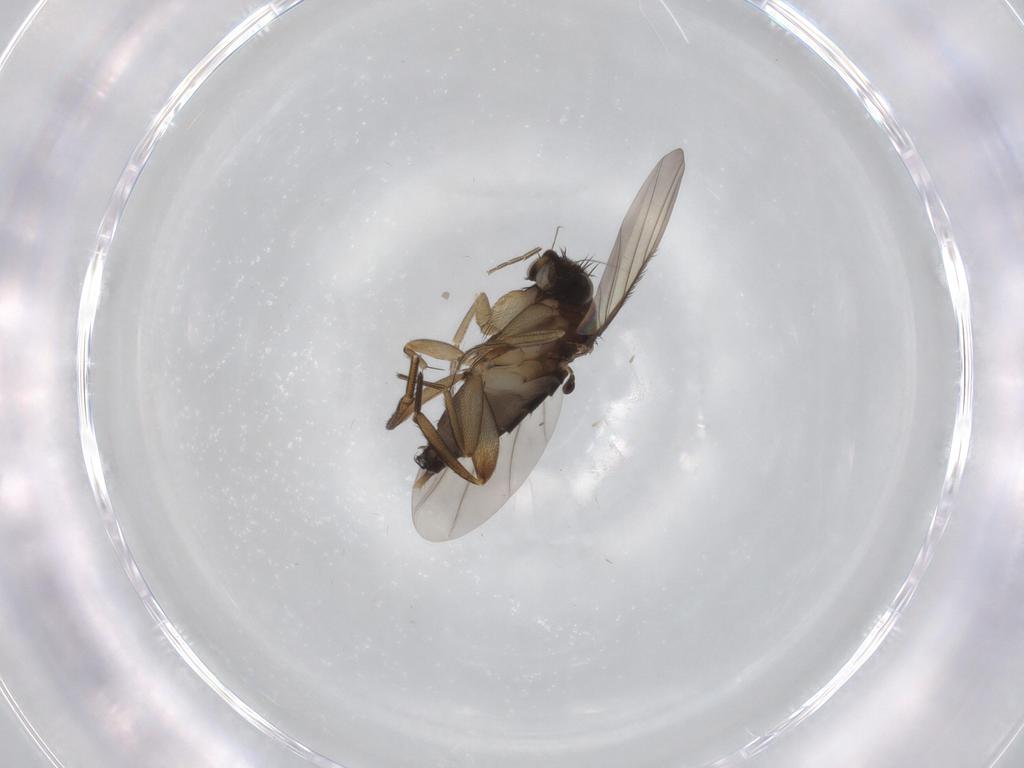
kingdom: Animalia
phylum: Arthropoda
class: Insecta
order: Diptera
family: Phoridae
